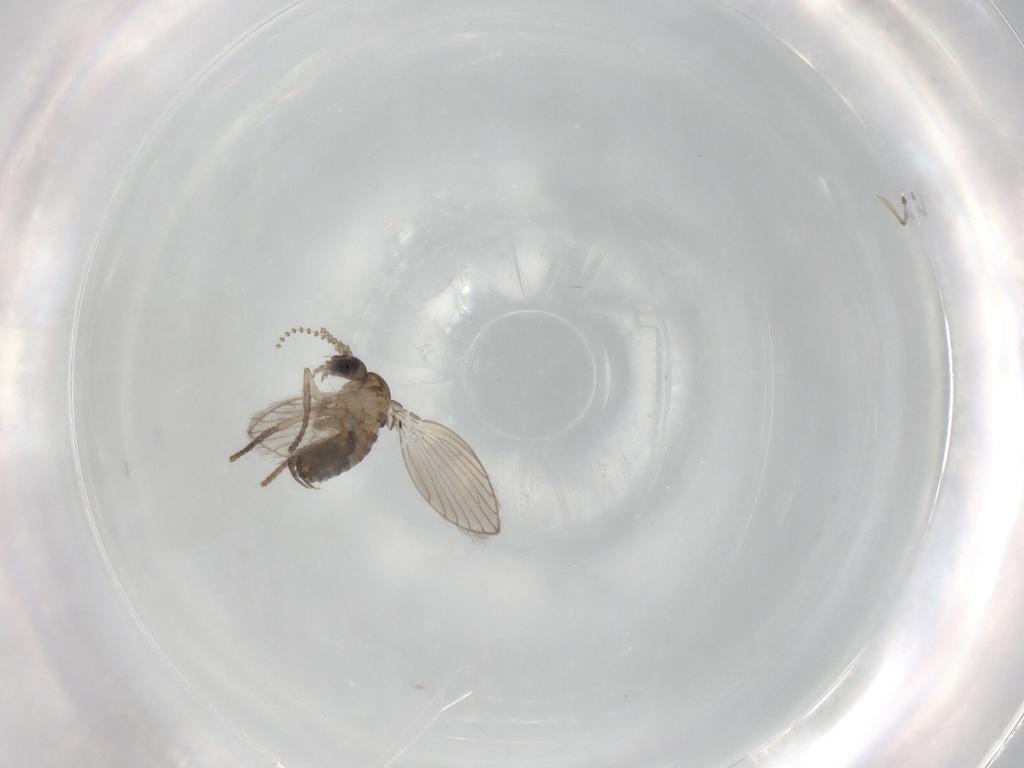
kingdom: Animalia
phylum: Arthropoda
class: Insecta
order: Diptera
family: Psychodidae
